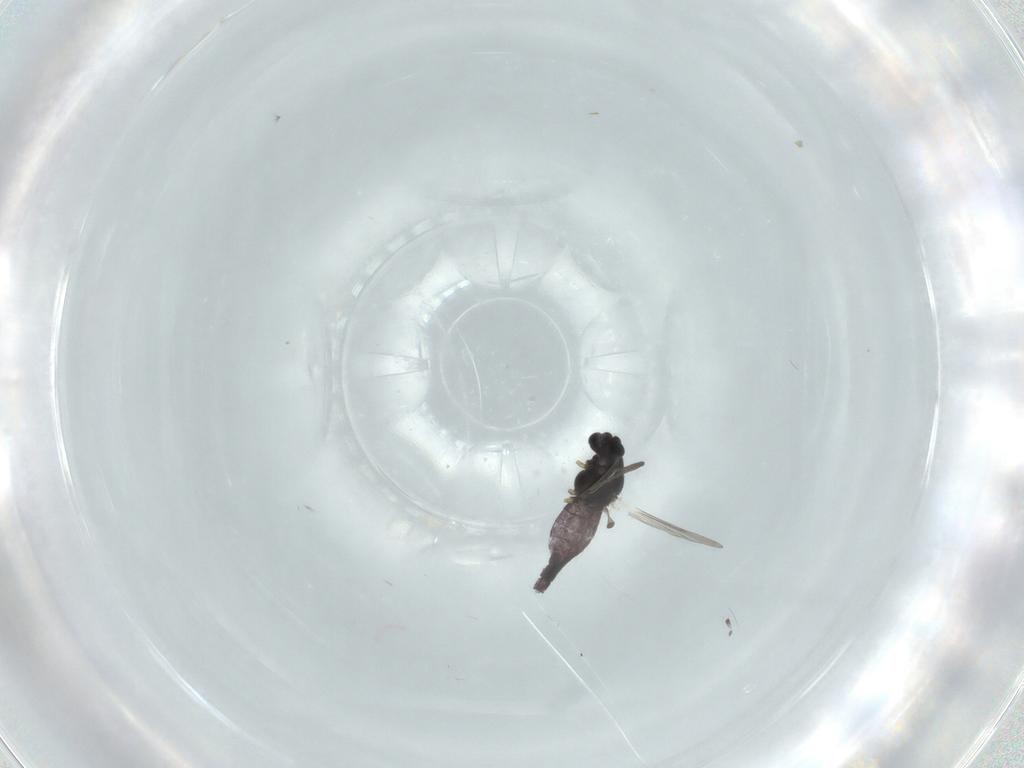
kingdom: Animalia
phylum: Arthropoda
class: Insecta
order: Diptera
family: Chironomidae
